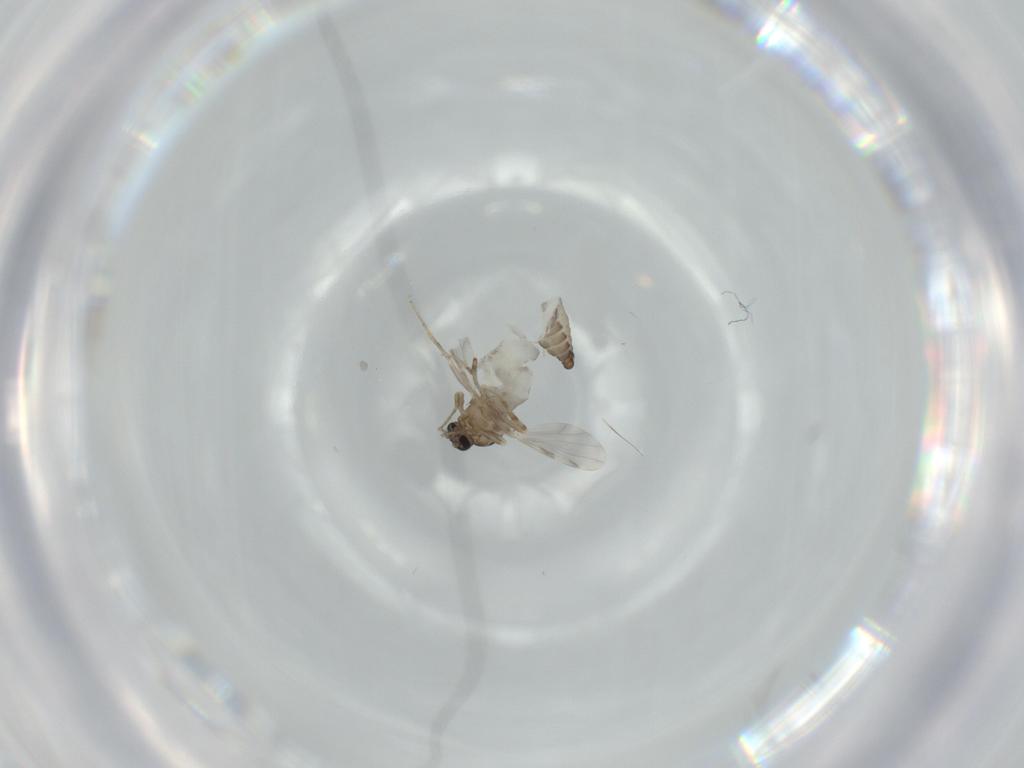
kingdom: Animalia
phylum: Arthropoda
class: Insecta
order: Diptera
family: Ceratopogonidae
